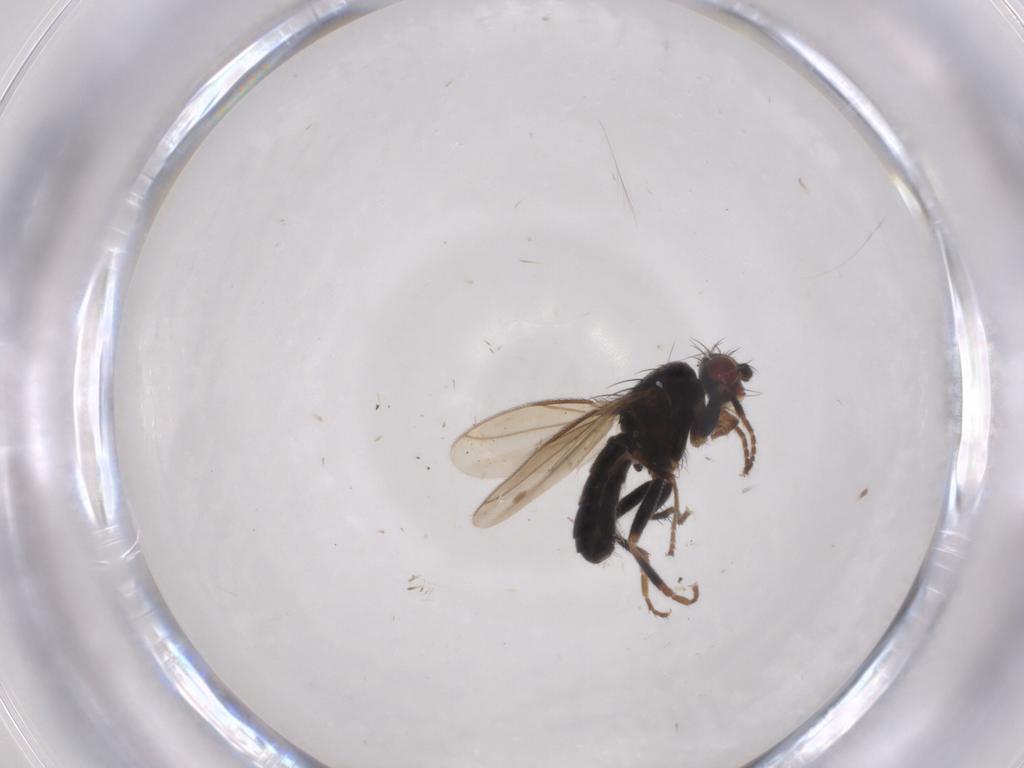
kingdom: Animalia
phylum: Arthropoda
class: Insecta
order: Diptera
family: Sphaeroceridae
